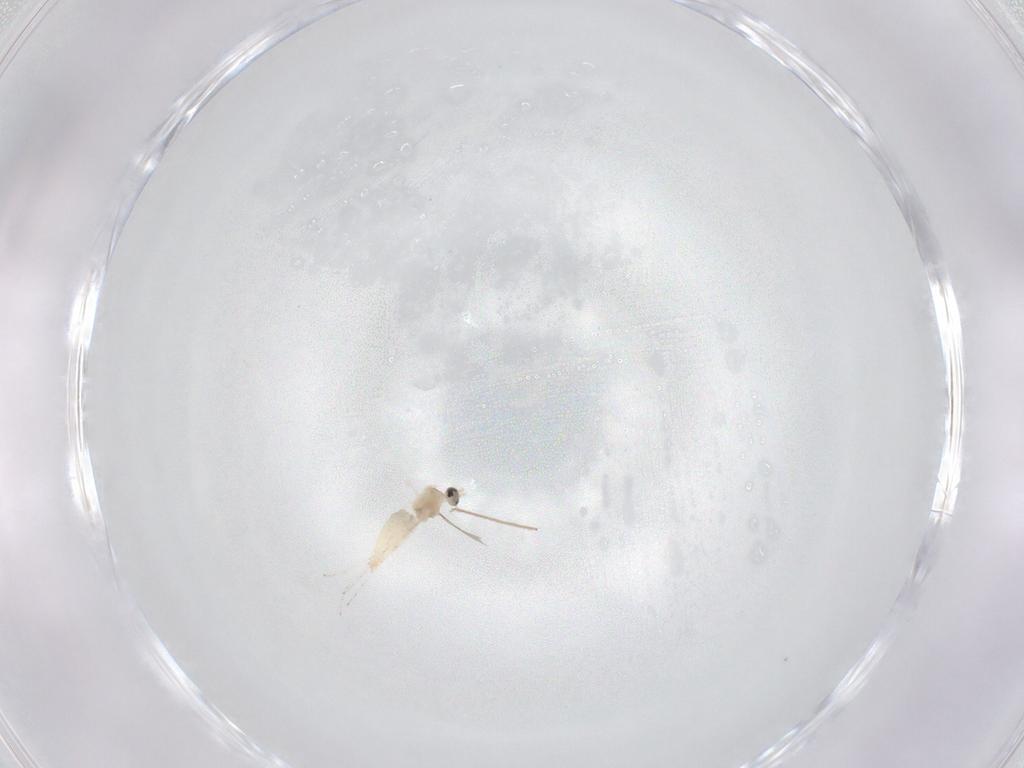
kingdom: Animalia
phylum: Arthropoda
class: Insecta
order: Diptera
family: Cecidomyiidae
